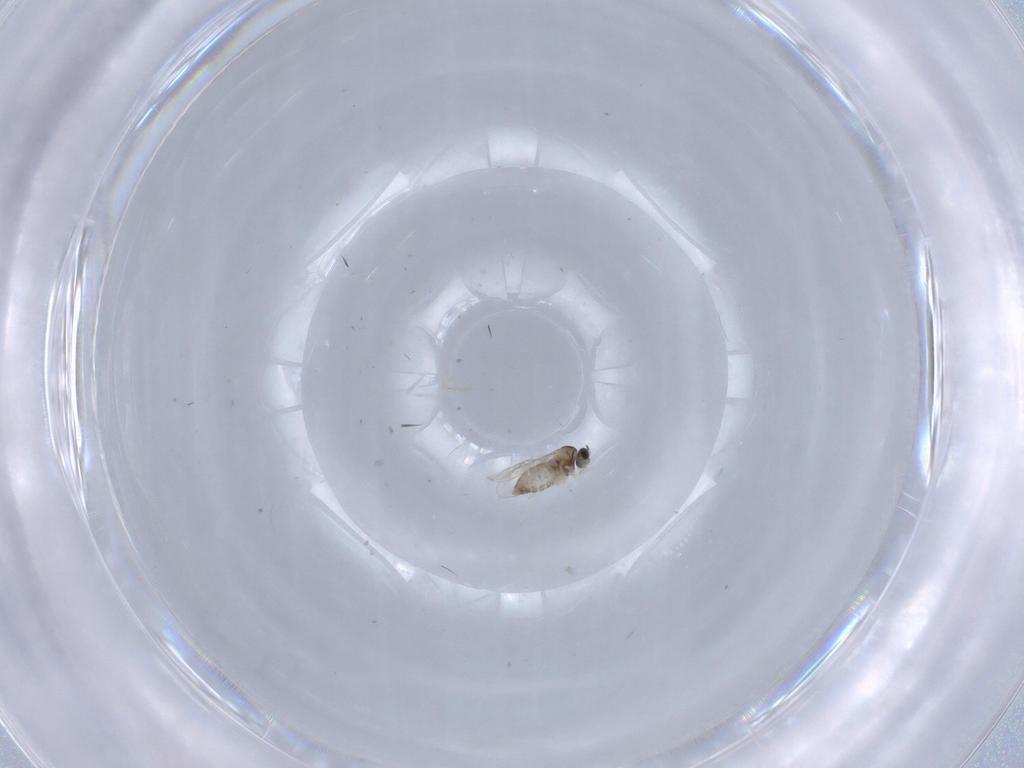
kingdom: Animalia
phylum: Arthropoda
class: Insecta
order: Diptera
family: Cecidomyiidae
